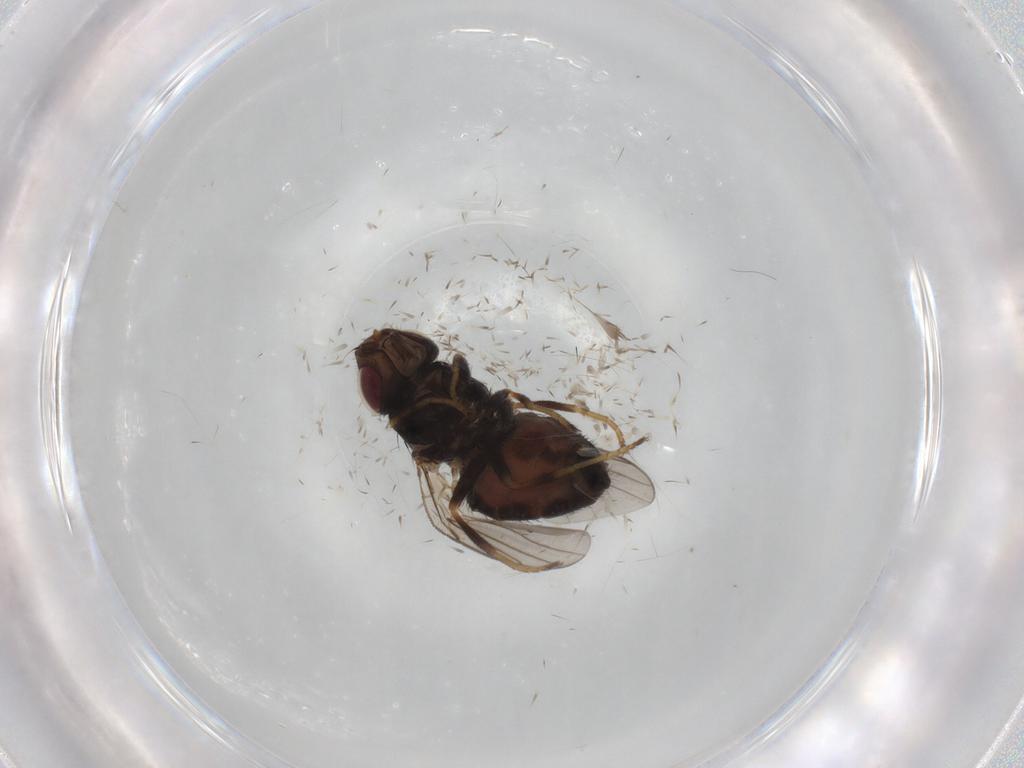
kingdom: Animalia
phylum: Arthropoda
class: Insecta
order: Diptera
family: Chloropidae
